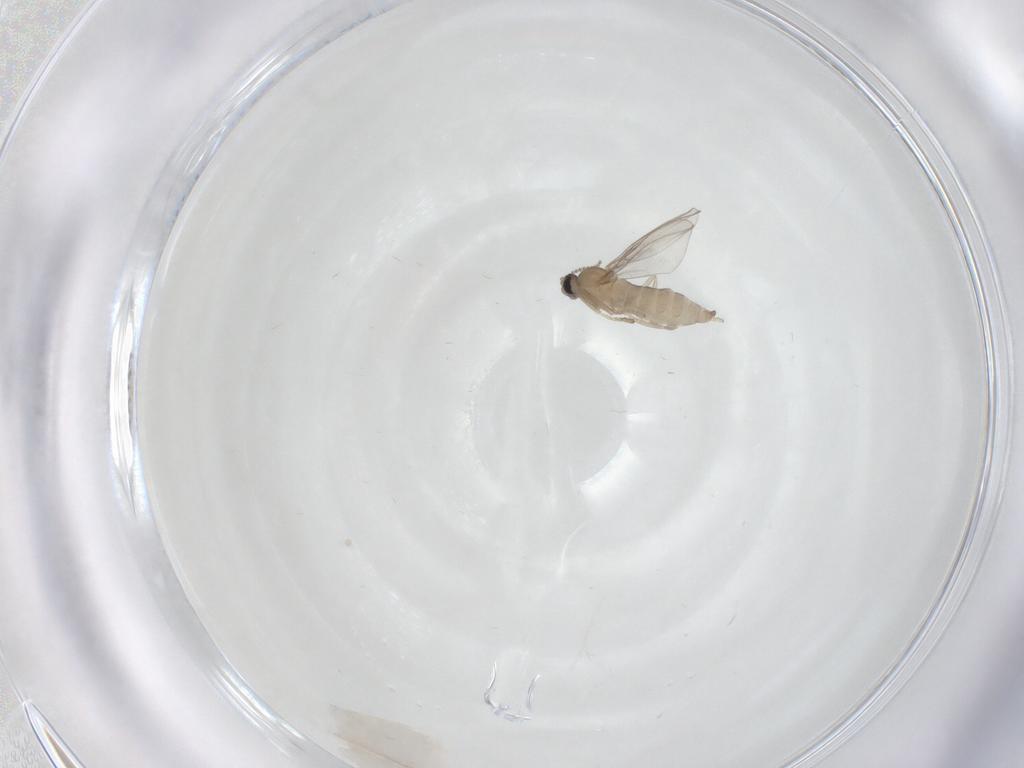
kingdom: Animalia
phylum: Arthropoda
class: Insecta
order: Diptera
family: Cecidomyiidae
